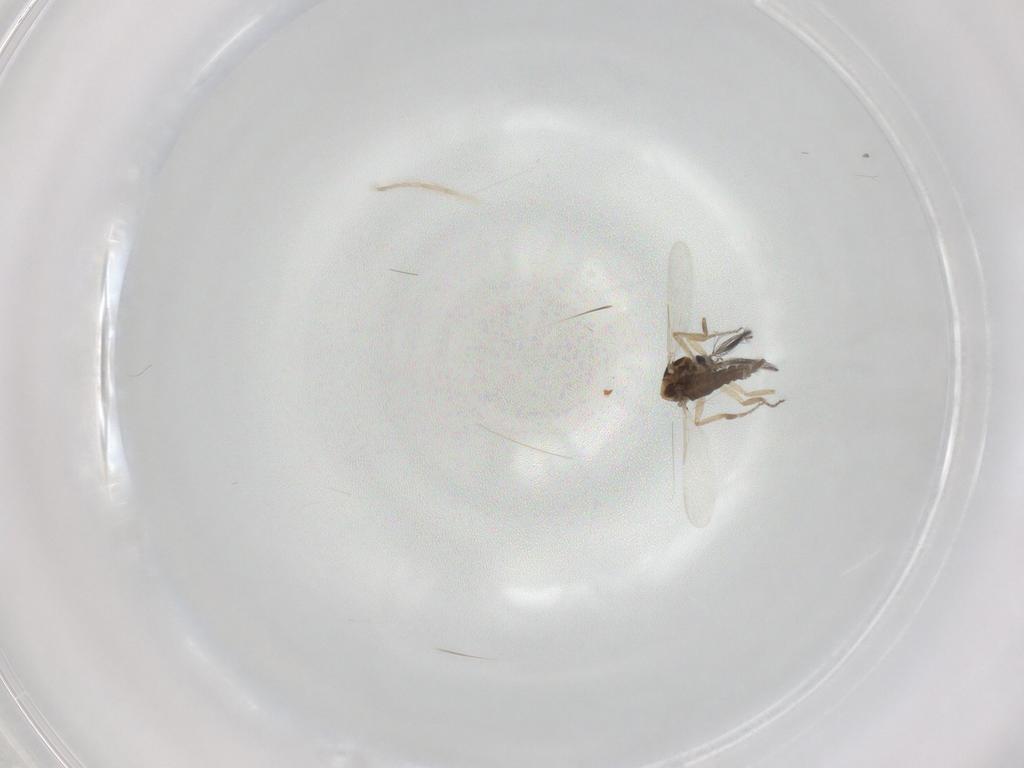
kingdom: Animalia
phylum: Arthropoda
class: Insecta
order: Diptera
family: Ceratopogonidae
